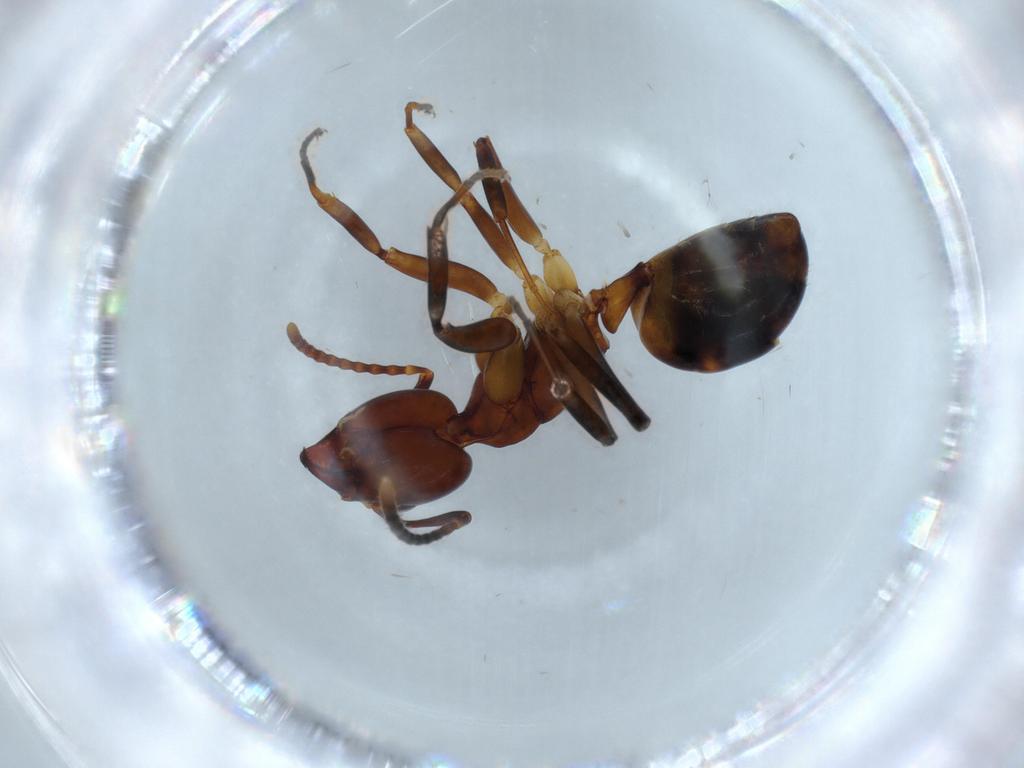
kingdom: Animalia
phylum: Arthropoda
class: Insecta
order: Hymenoptera
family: Formicidae
